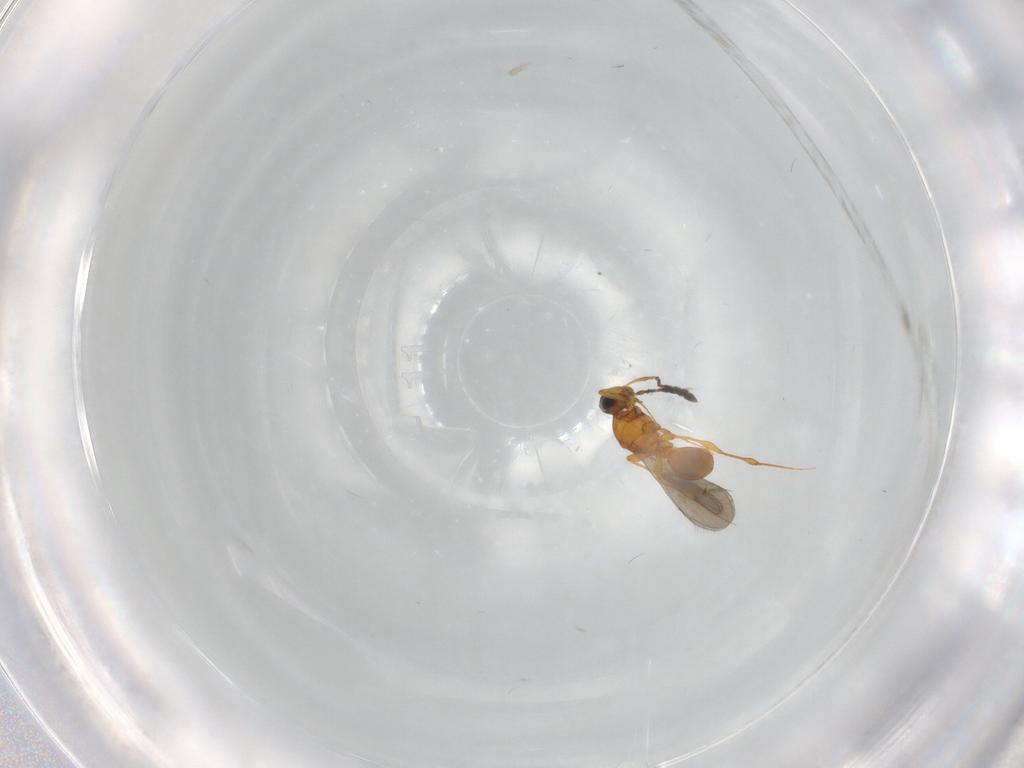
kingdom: Animalia
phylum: Arthropoda
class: Insecta
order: Hymenoptera
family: Platygastridae
